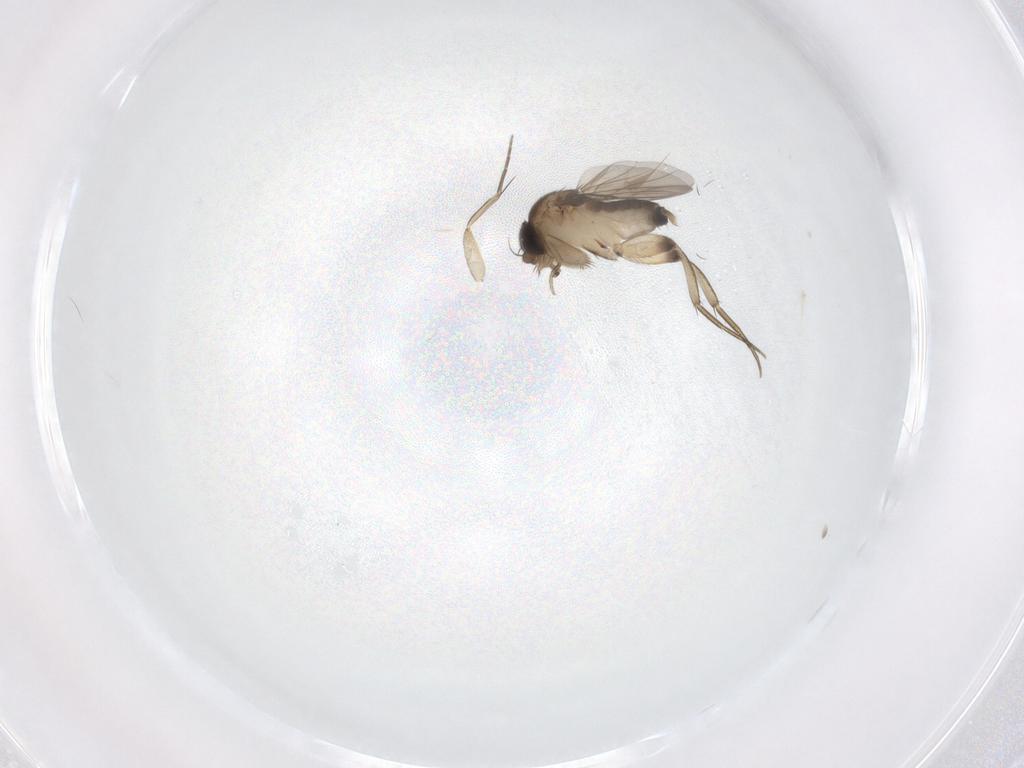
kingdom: Animalia
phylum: Arthropoda
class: Insecta
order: Diptera
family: Phoridae
